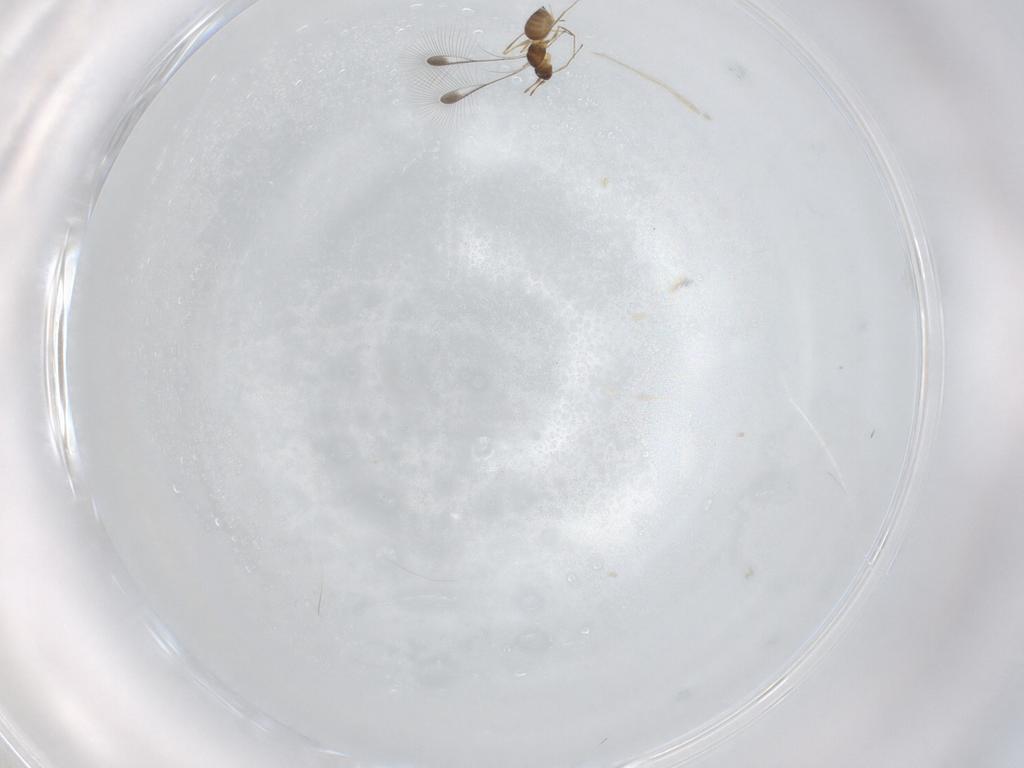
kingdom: Animalia
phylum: Arthropoda
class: Insecta
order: Hymenoptera
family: Mymaridae
